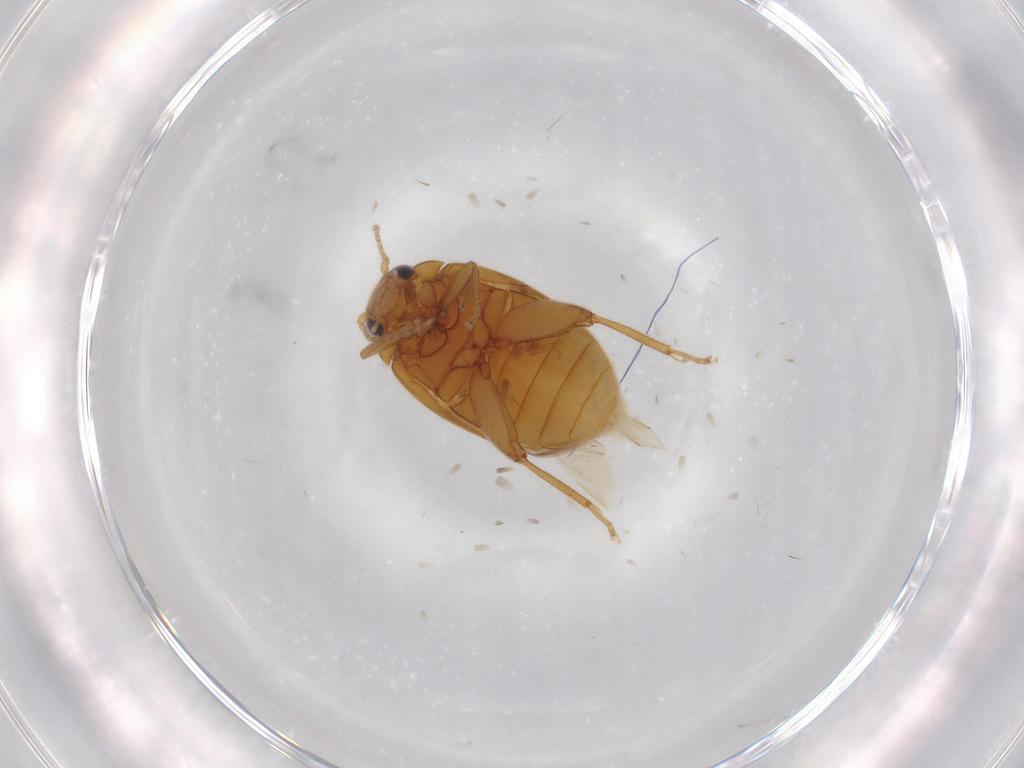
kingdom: Animalia
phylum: Arthropoda
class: Insecta
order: Coleoptera
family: Scirtidae
